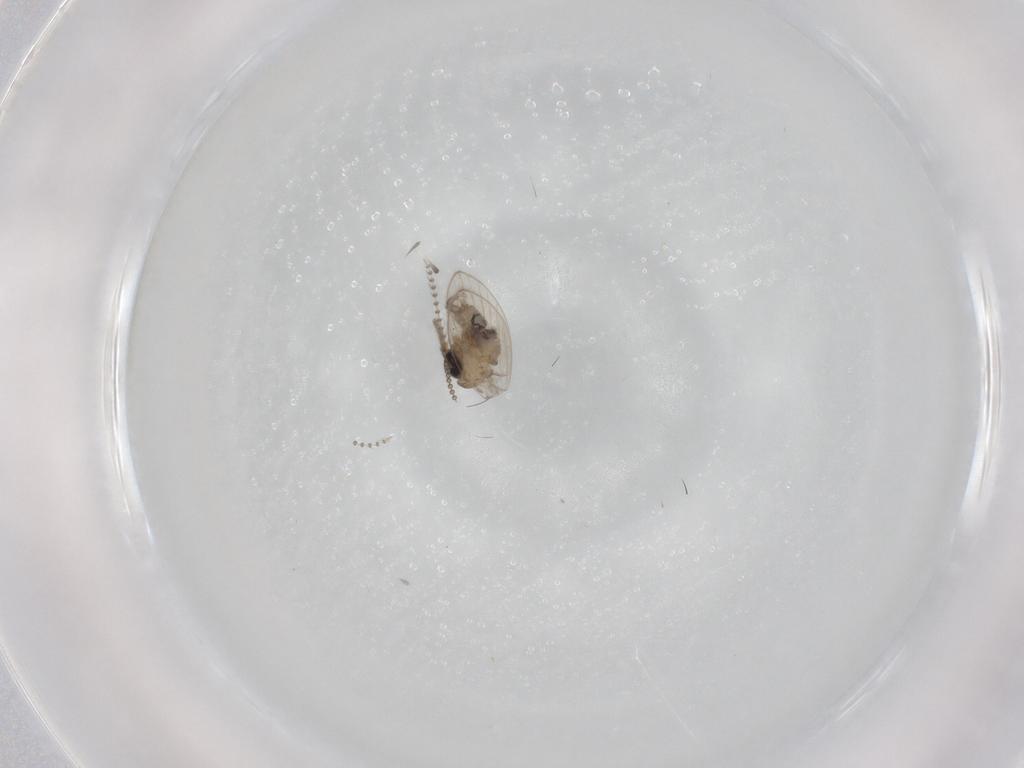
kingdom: Animalia
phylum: Arthropoda
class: Insecta
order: Diptera
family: Psychodidae
